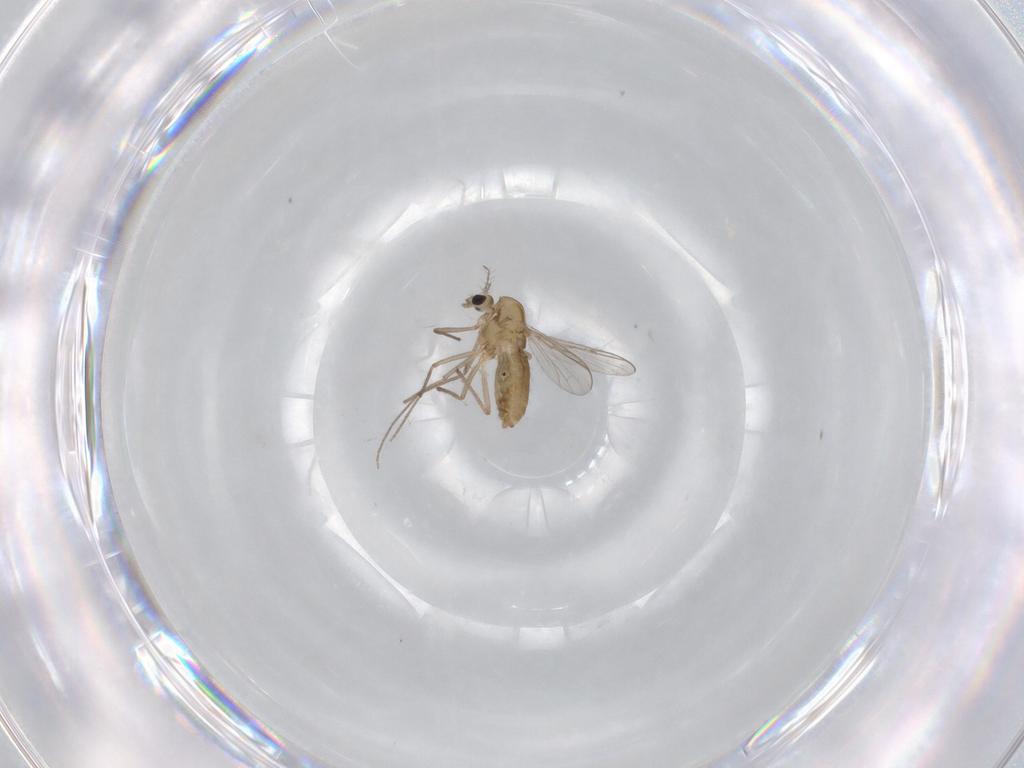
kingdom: Animalia
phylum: Arthropoda
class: Insecta
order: Diptera
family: Chironomidae
